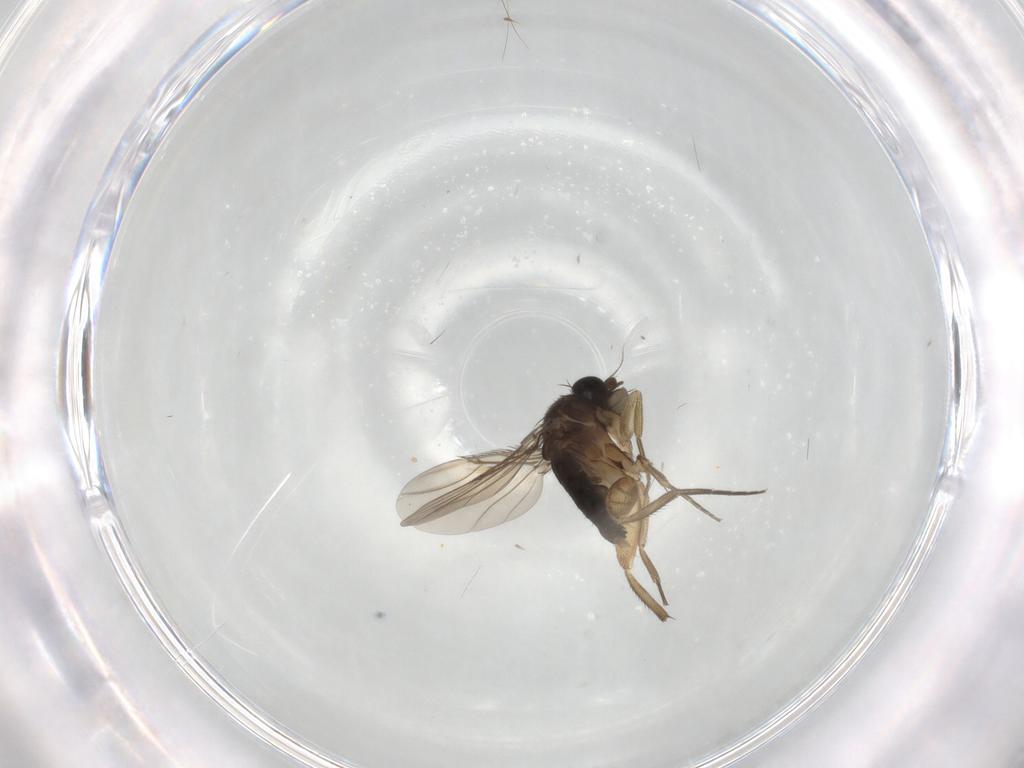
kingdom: Animalia
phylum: Arthropoda
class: Insecta
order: Diptera
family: Phoridae
